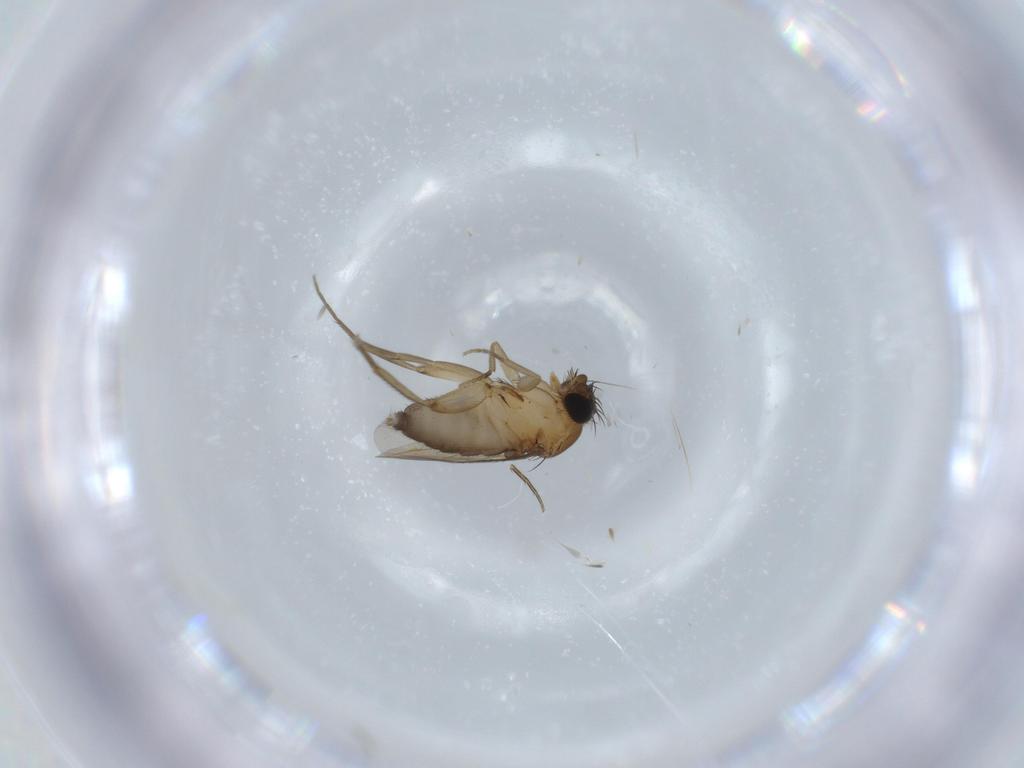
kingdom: Animalia
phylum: Arthropoda
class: Insecta
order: Diptera
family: Phoridae
